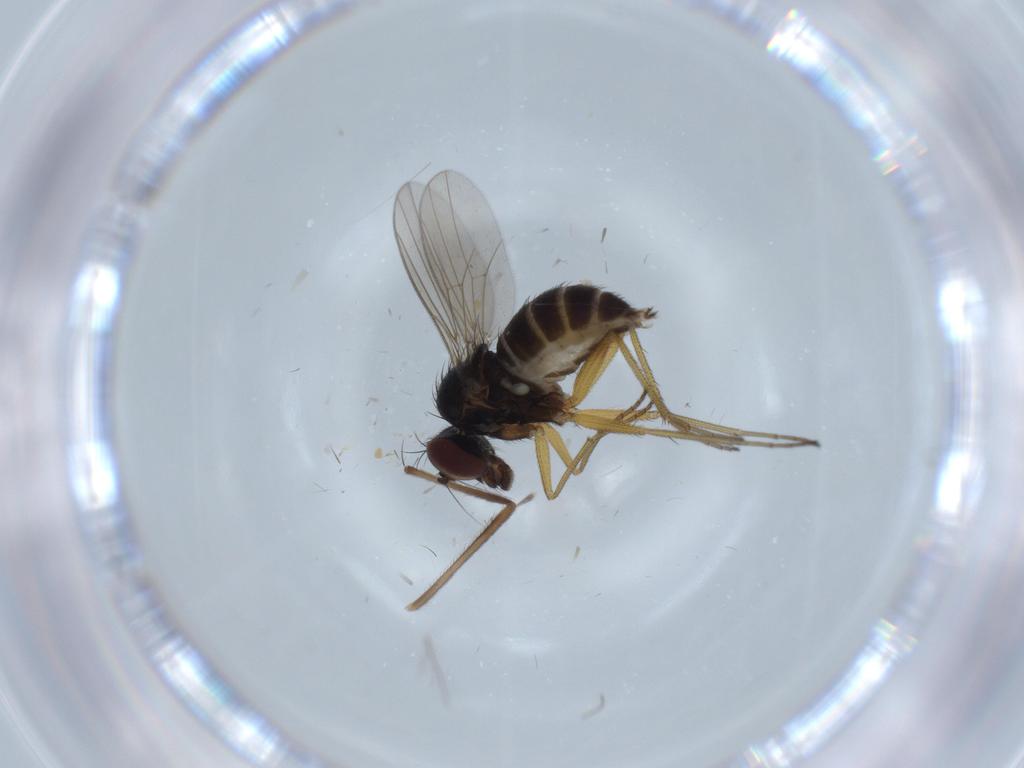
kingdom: Animalia
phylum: Arthropoda
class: Insecta
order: Diptera
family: Dolichopodidae
